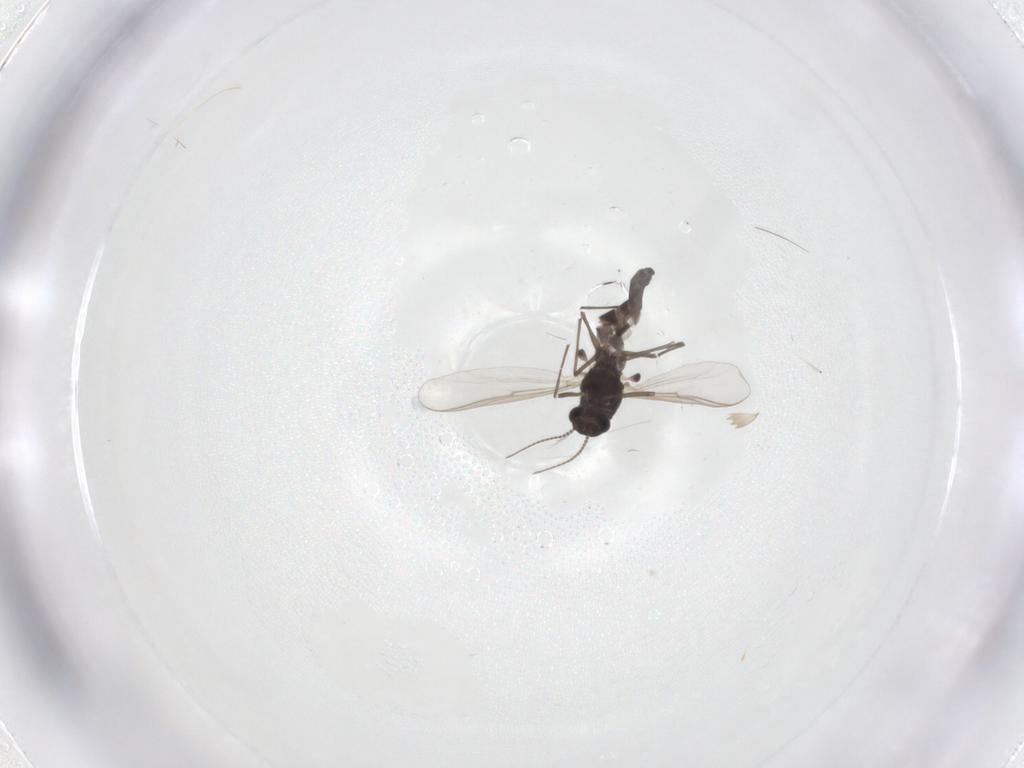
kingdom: Animalia
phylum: Arthropoda
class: Insecta
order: Diptera
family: Chironomidae
